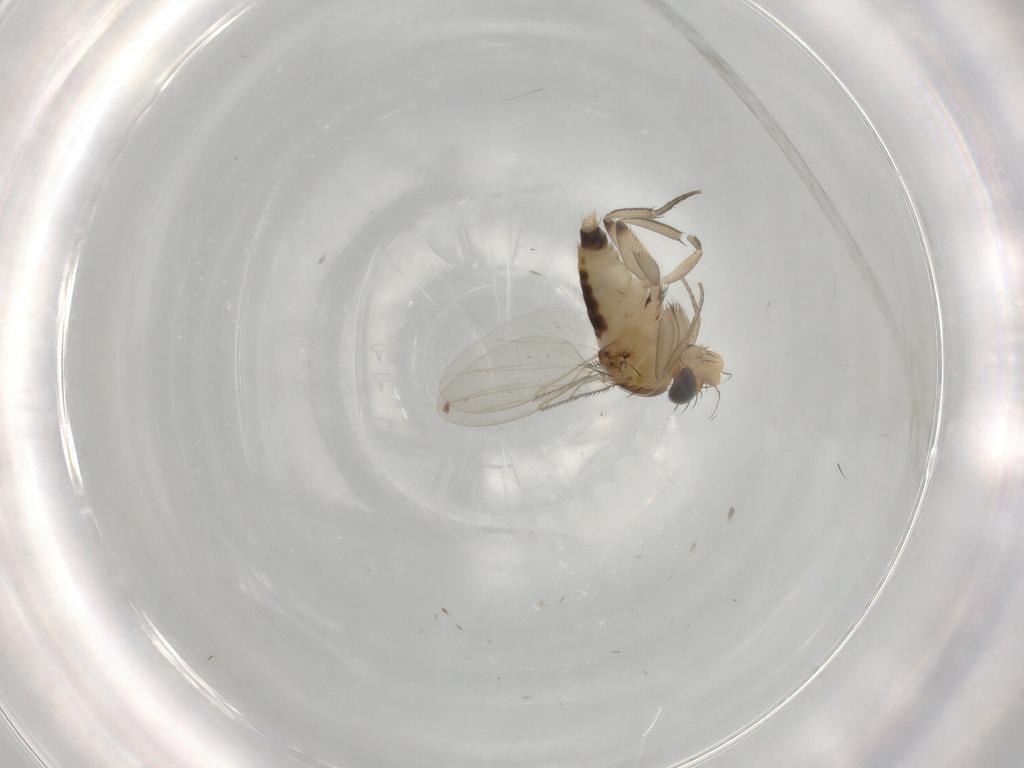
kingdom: Animalia
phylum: Arthropoda
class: Insecta
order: Diptera
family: Phoridae
